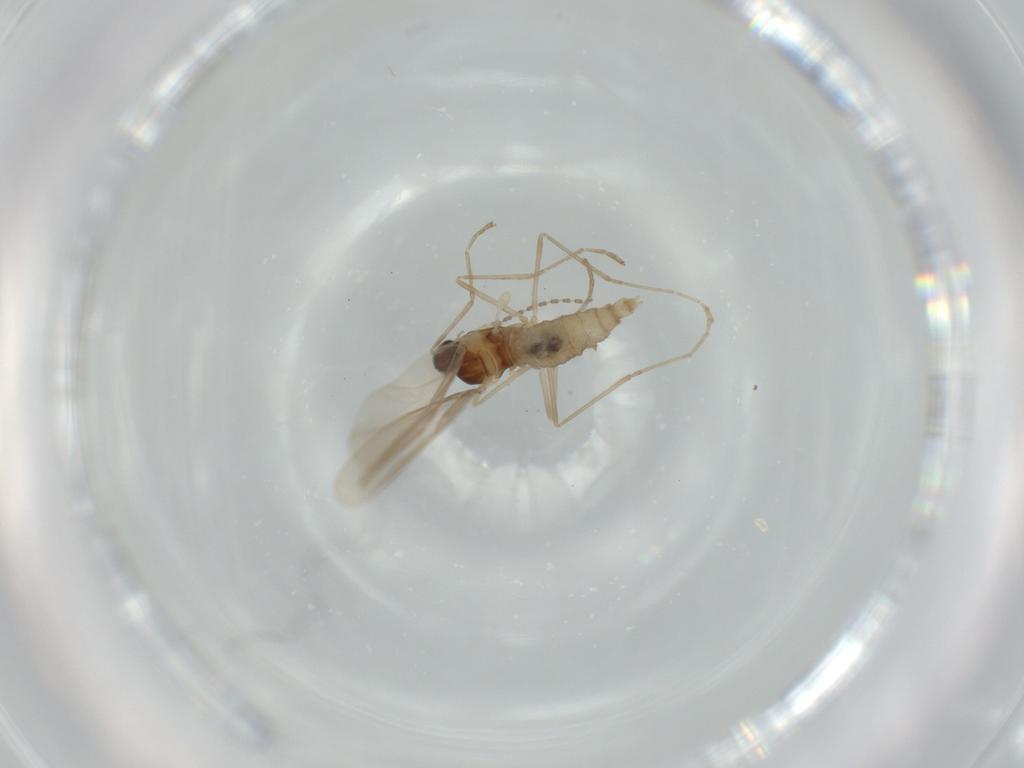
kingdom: Animalia
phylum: Arthropoda
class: Insecta
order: Diptera
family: Cecidomyiidae
